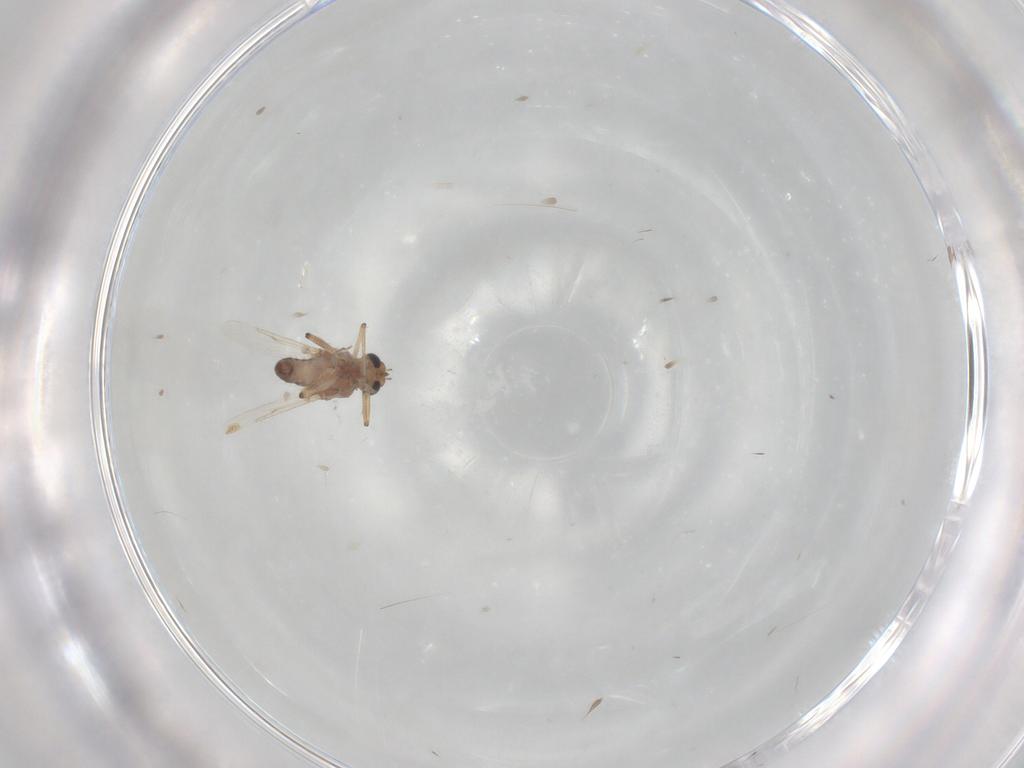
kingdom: Animalia
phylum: Arthropoda
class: Insecta
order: Diptera
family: Cecidomyiidae
